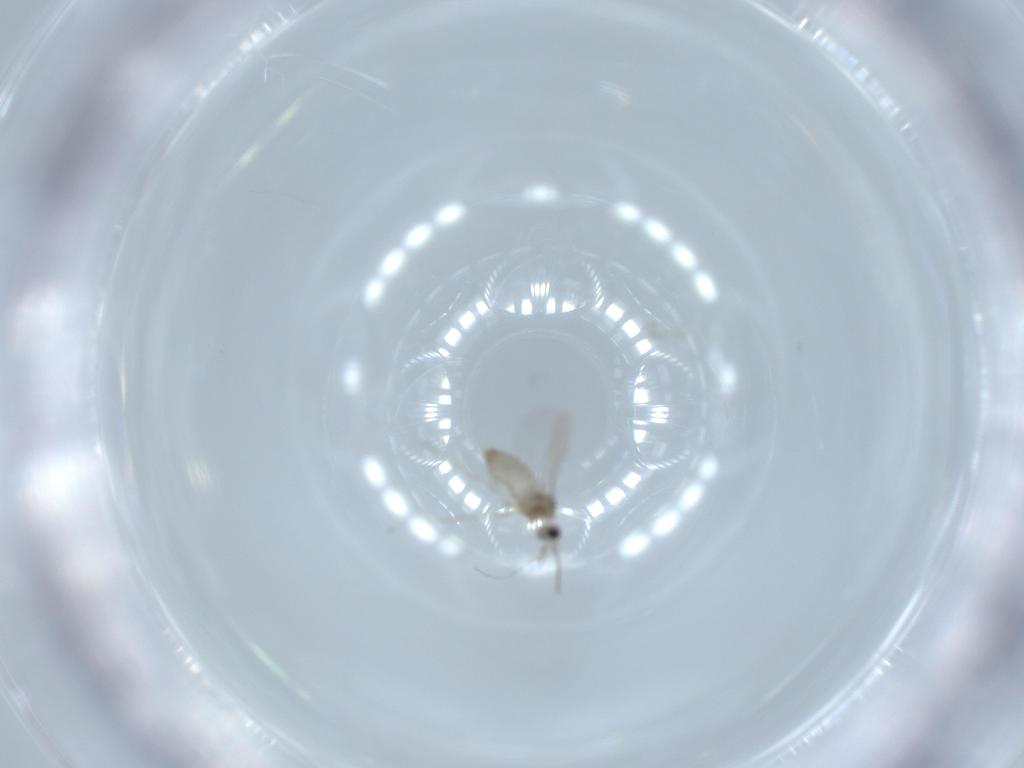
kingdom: Animalia
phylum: Arthropoda
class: Insecta
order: Diptera
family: Cecidomyiidae
